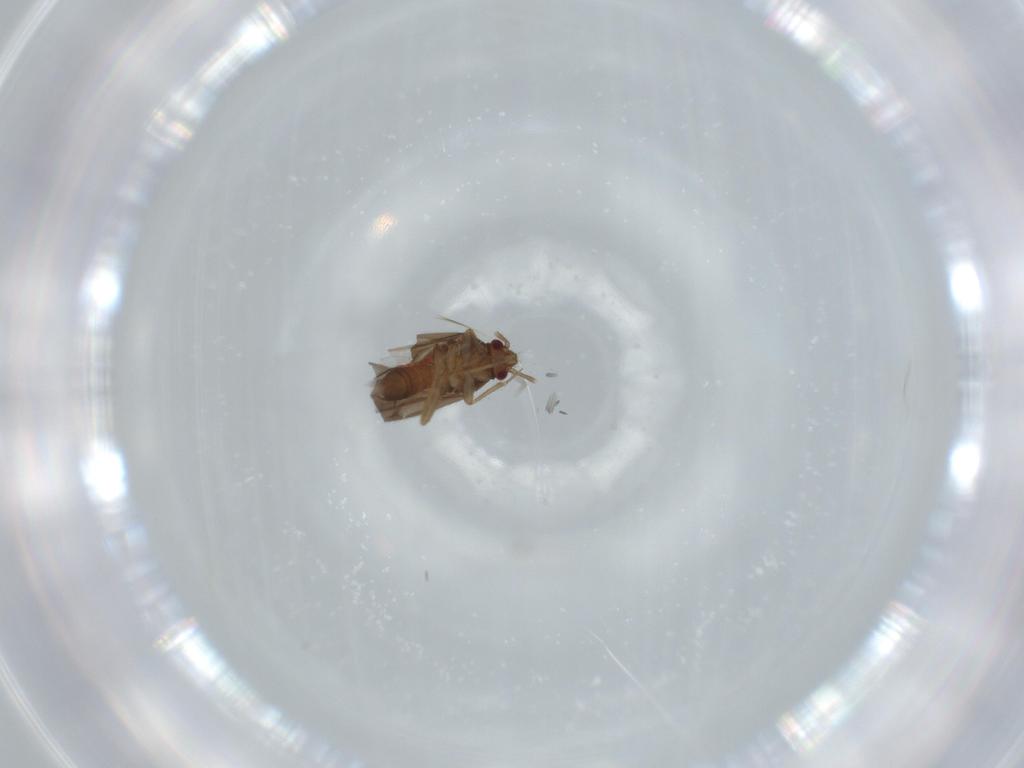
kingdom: Animalia
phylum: Arthropoda
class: Insecta
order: Hemiptera
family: Ceratocombidae
